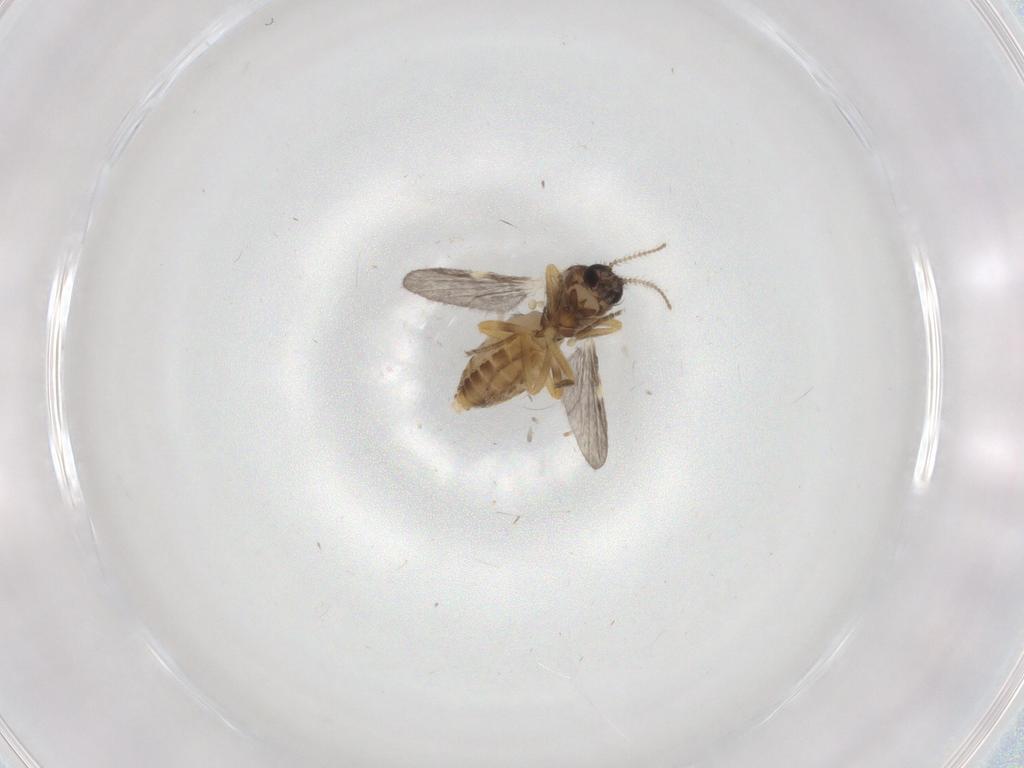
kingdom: Animalia
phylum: Arthropoda
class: Insecta
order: Diptera
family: Ceratopogonidae
